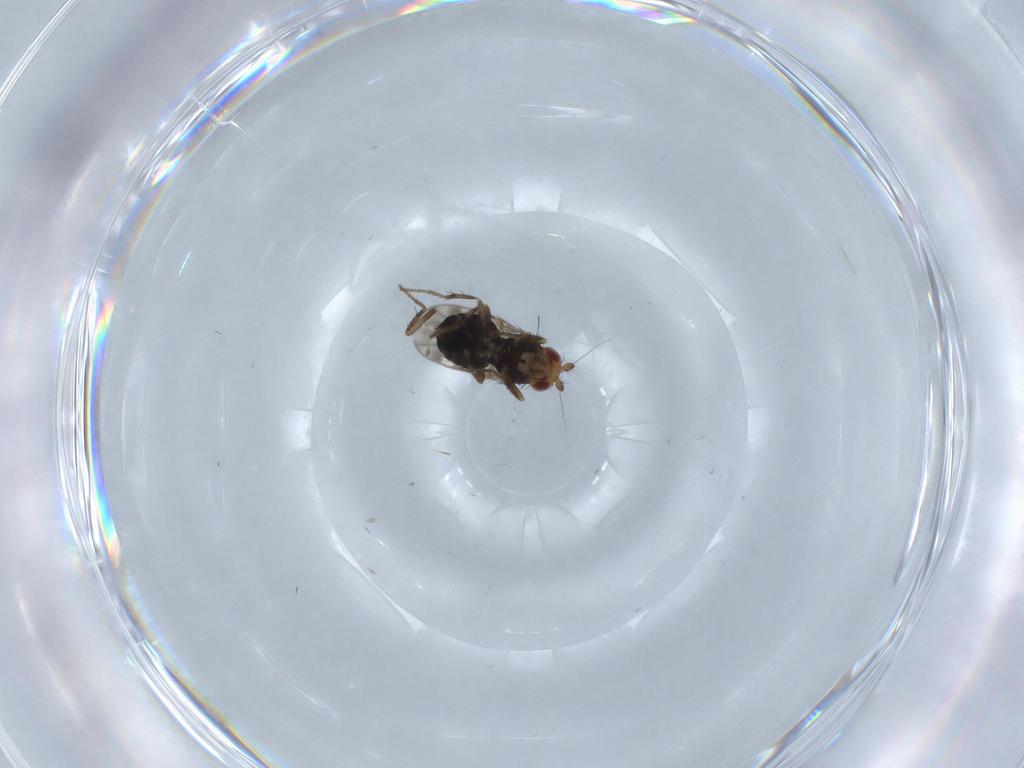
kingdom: Animalia
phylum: Arthropoda
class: Insecta
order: Diptera
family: Sphaeroceridae
